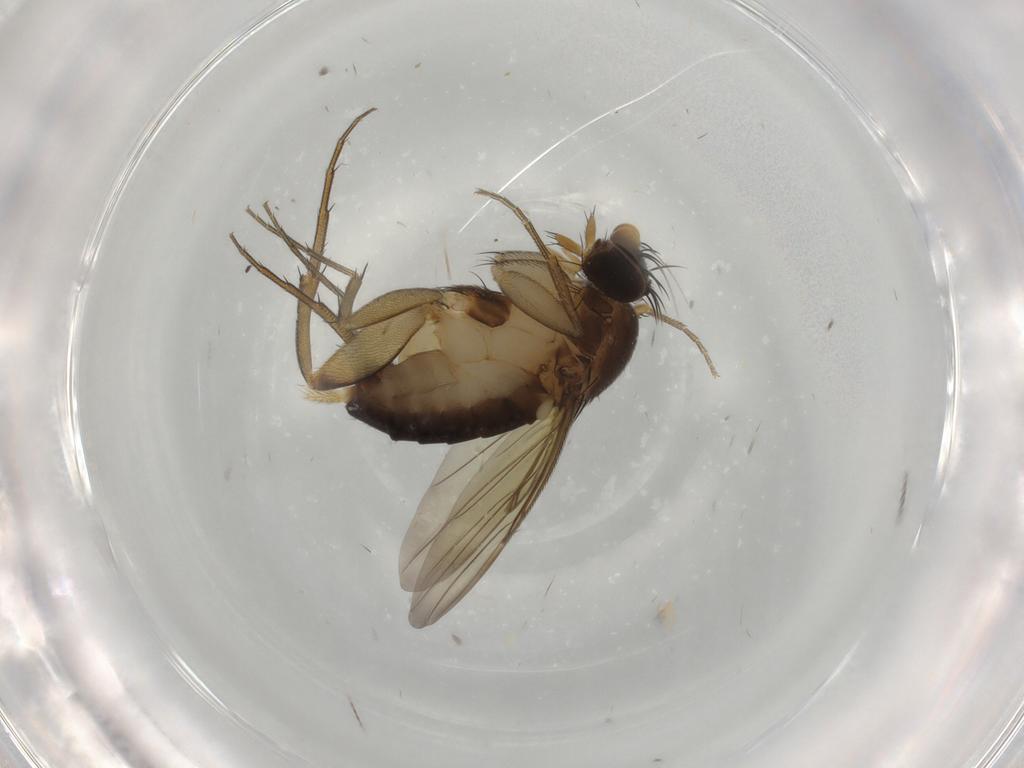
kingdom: Animalia
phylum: Arthropoda
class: Insecta
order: Diptera
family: Phoridae
